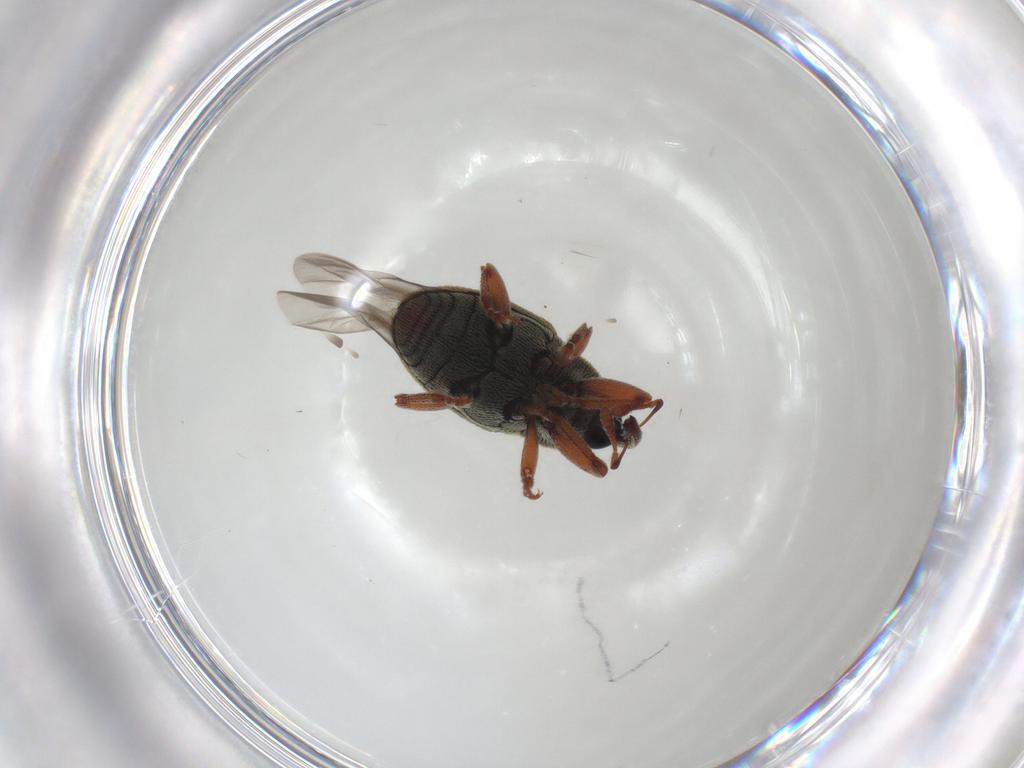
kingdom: Animalia
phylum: Arthropoda
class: Insecta
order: Coleoptera
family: Curculionidae
